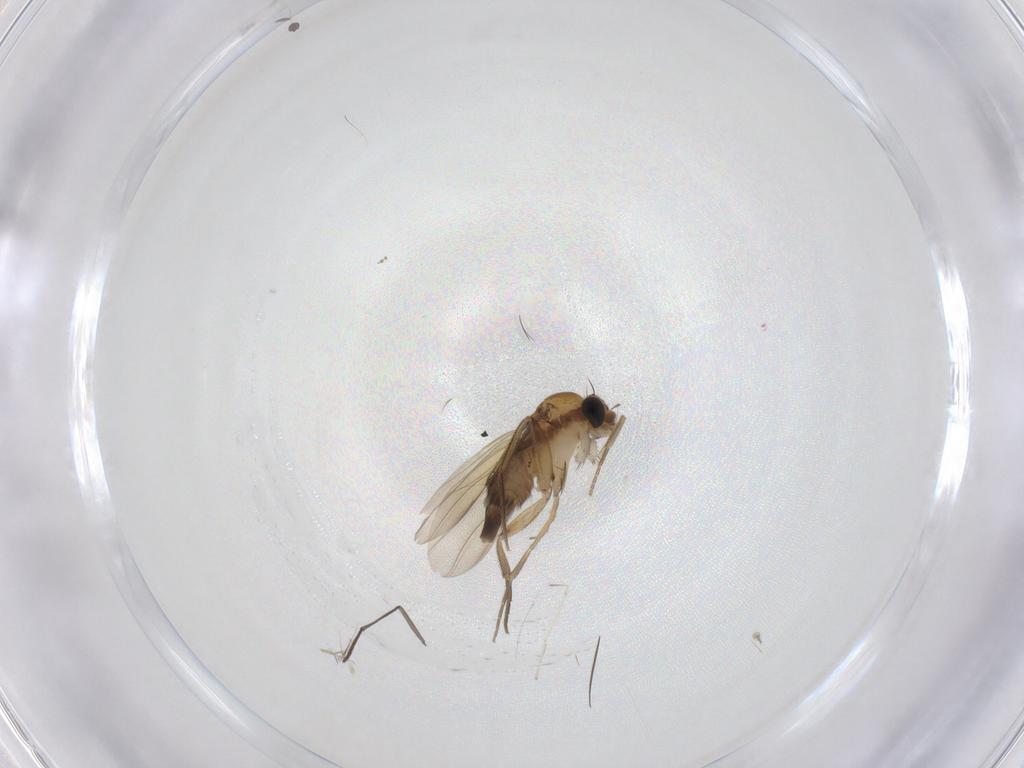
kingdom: Animalia
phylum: Arthropoda
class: Insecta
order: Diptera
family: Phoridae
